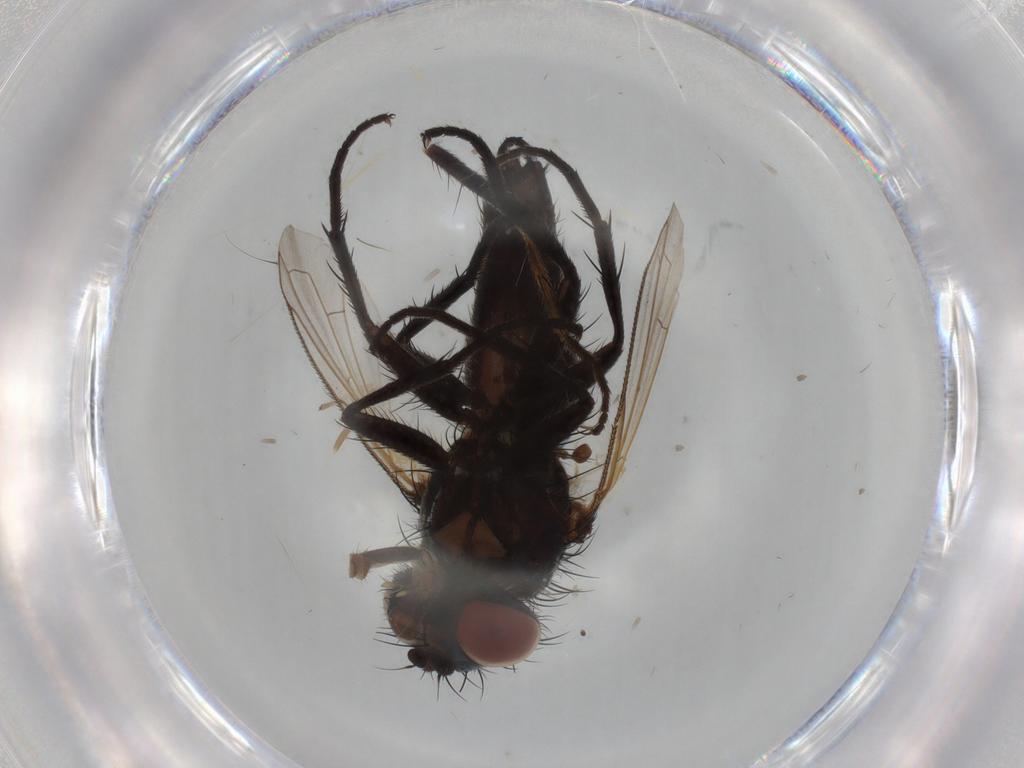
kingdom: Animalia
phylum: Arthropoda
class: Insecta
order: Diptera
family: Tachinidae
